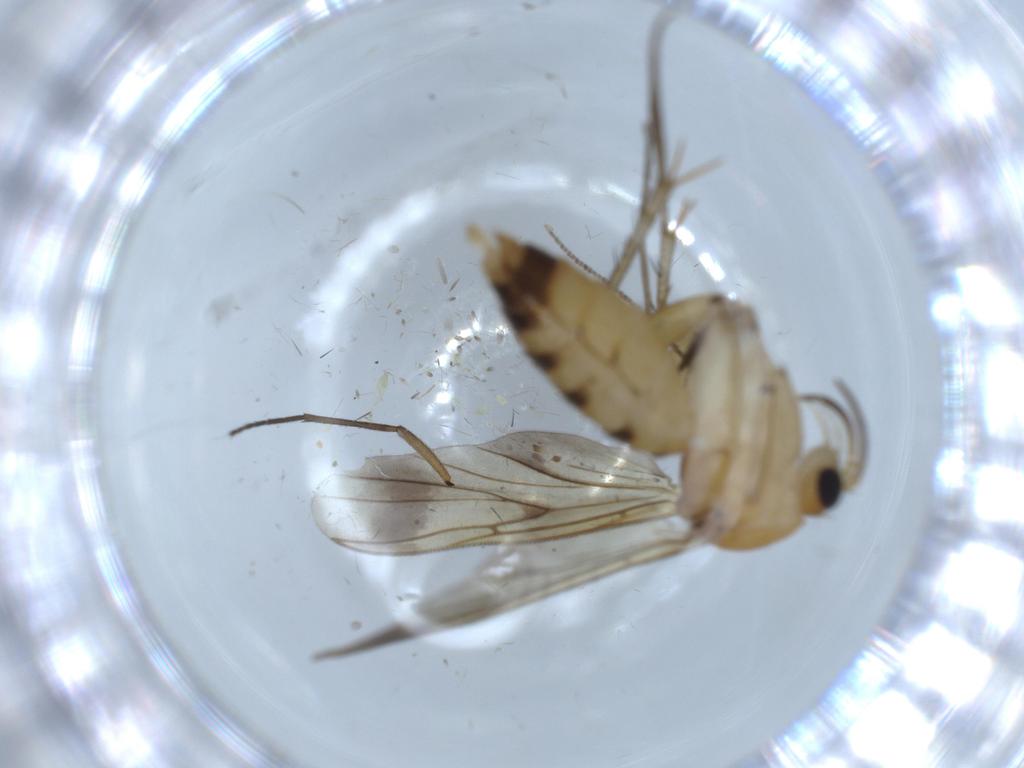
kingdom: Animalia
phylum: Arthropoda
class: Insecta
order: Diptera
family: Mycetophilidae
